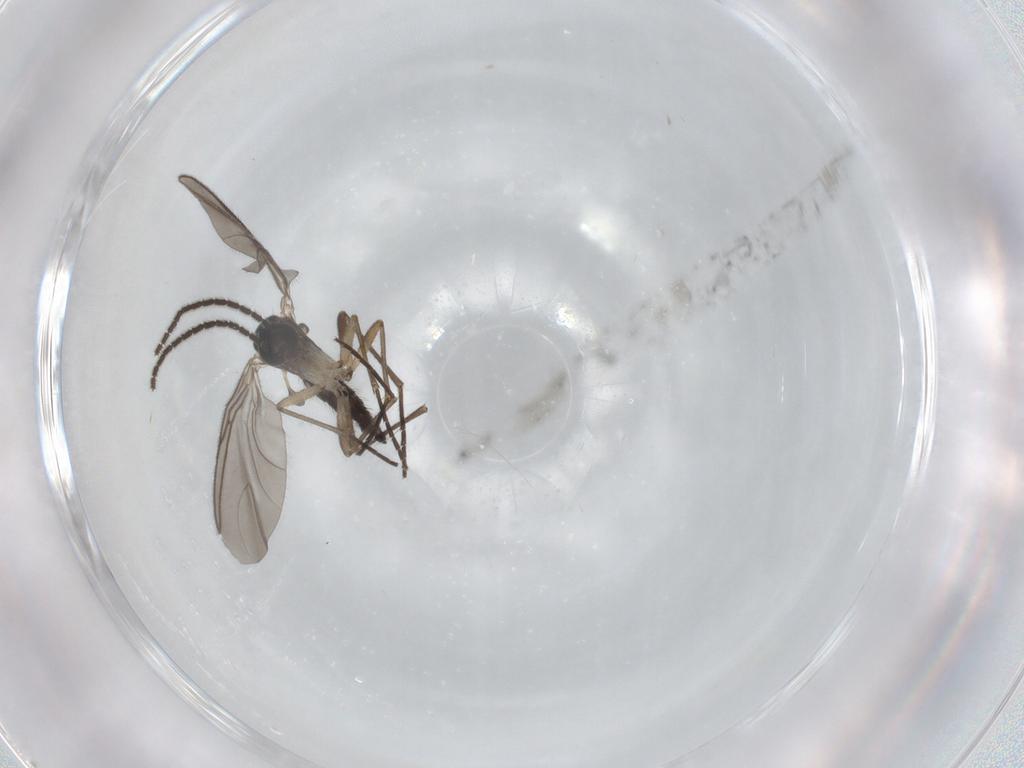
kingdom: Animalia
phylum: Arthropoda
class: Insecta
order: Diptera
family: Sciaridae
